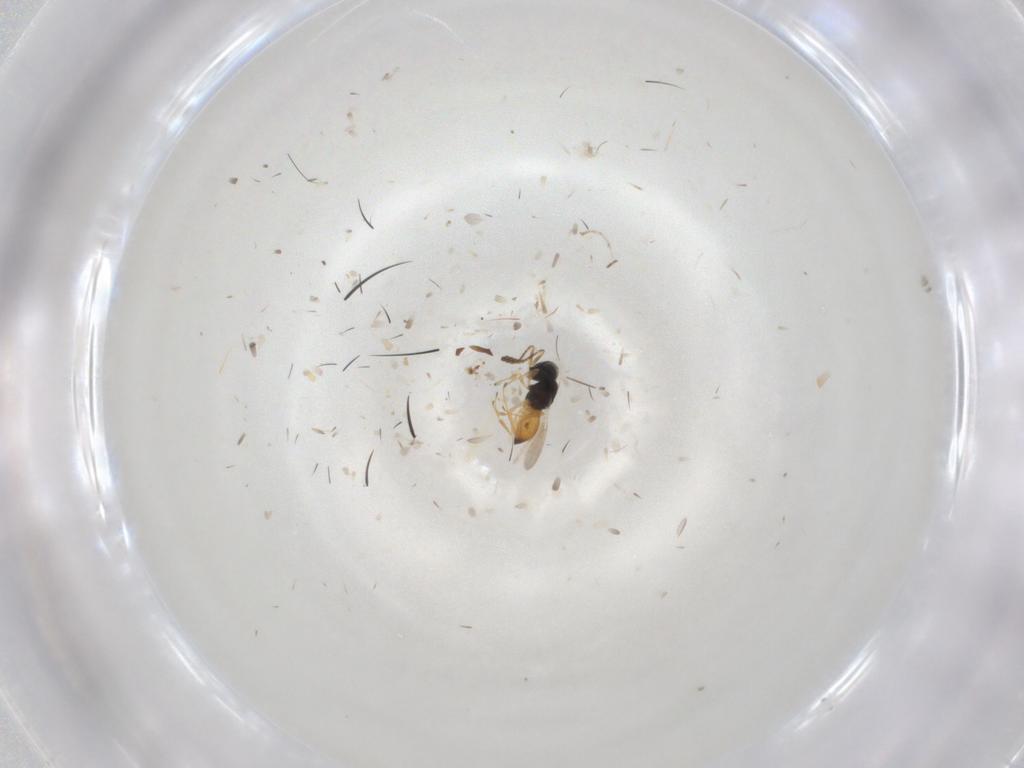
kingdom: Animalia
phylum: Arthropoda
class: Insecta
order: Hymenoptera
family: Scelionidae
